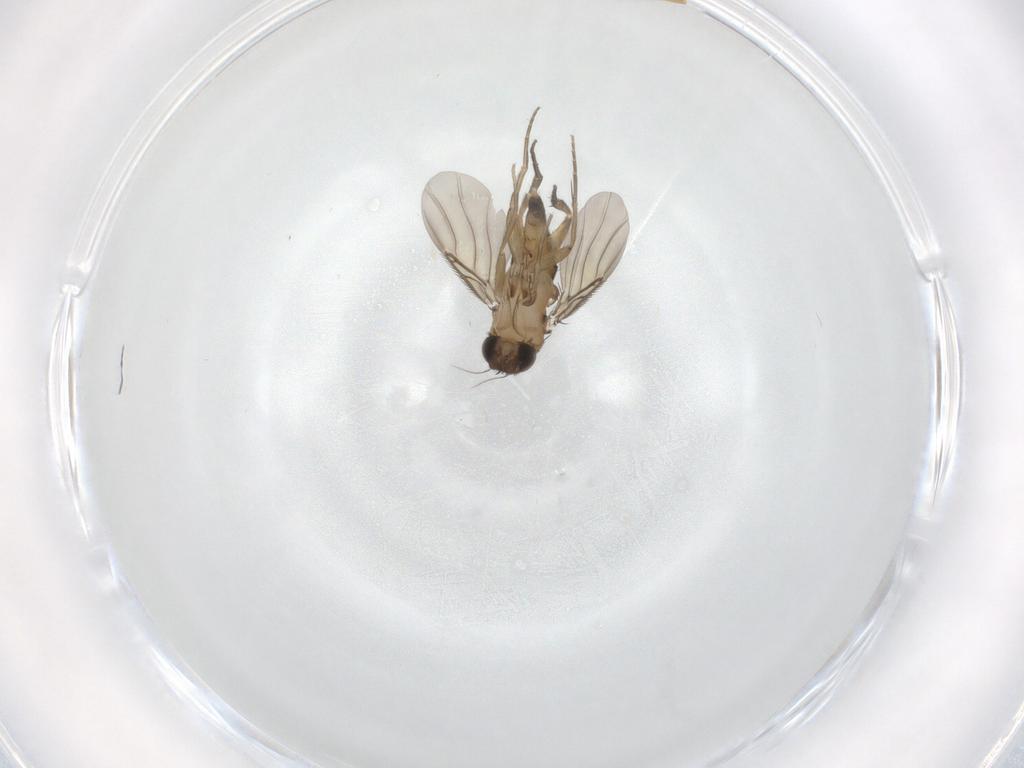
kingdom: Animalia
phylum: Arthropoda
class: Insecta
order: Diptera
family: Phoridae
